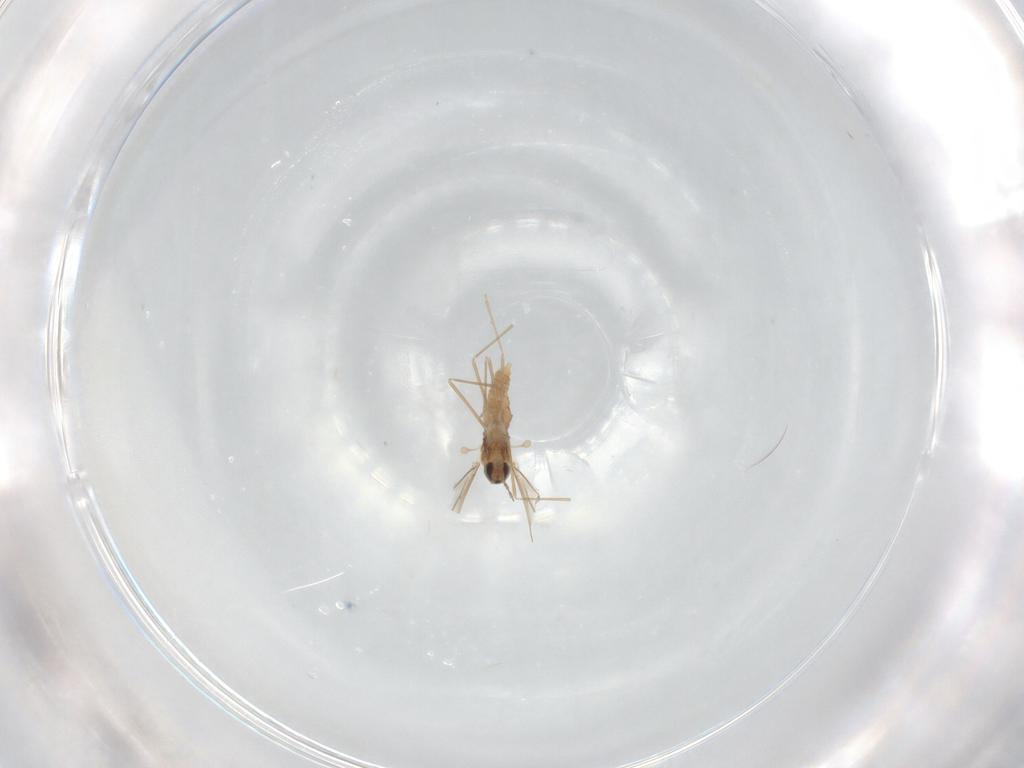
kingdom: Animalia
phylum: Arthropoda
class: Insecta
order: Diptera
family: Cecidomyiidae
